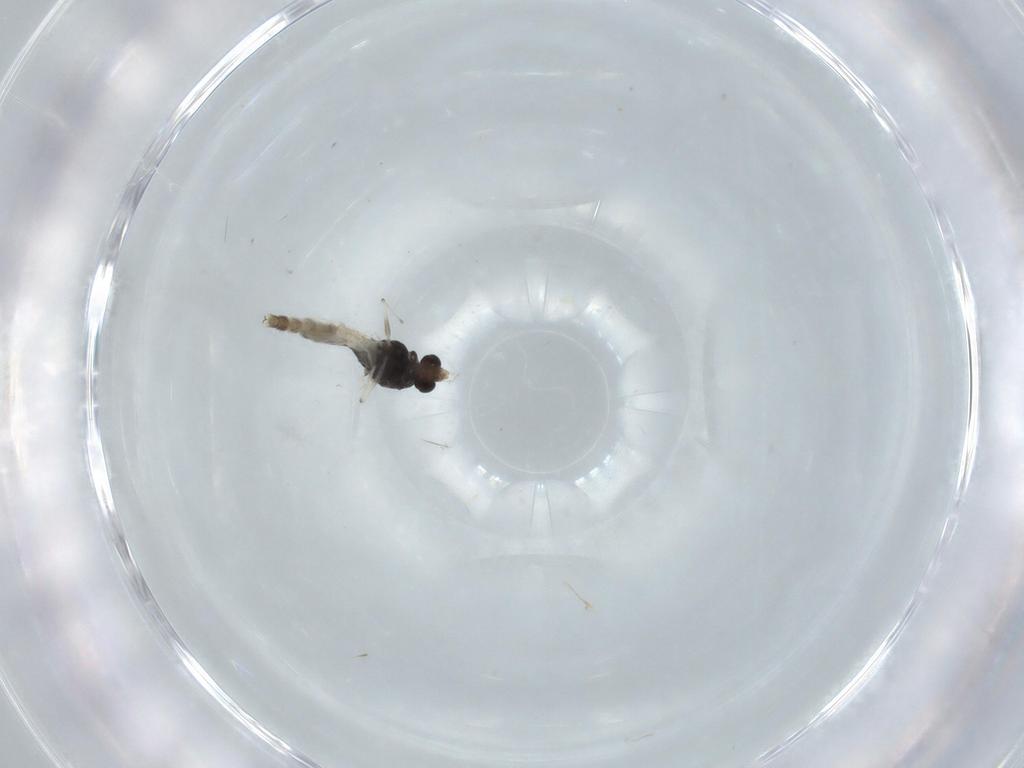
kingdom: Animalia
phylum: Arthropoda
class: Insecta
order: Diptera
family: Chironomidae
